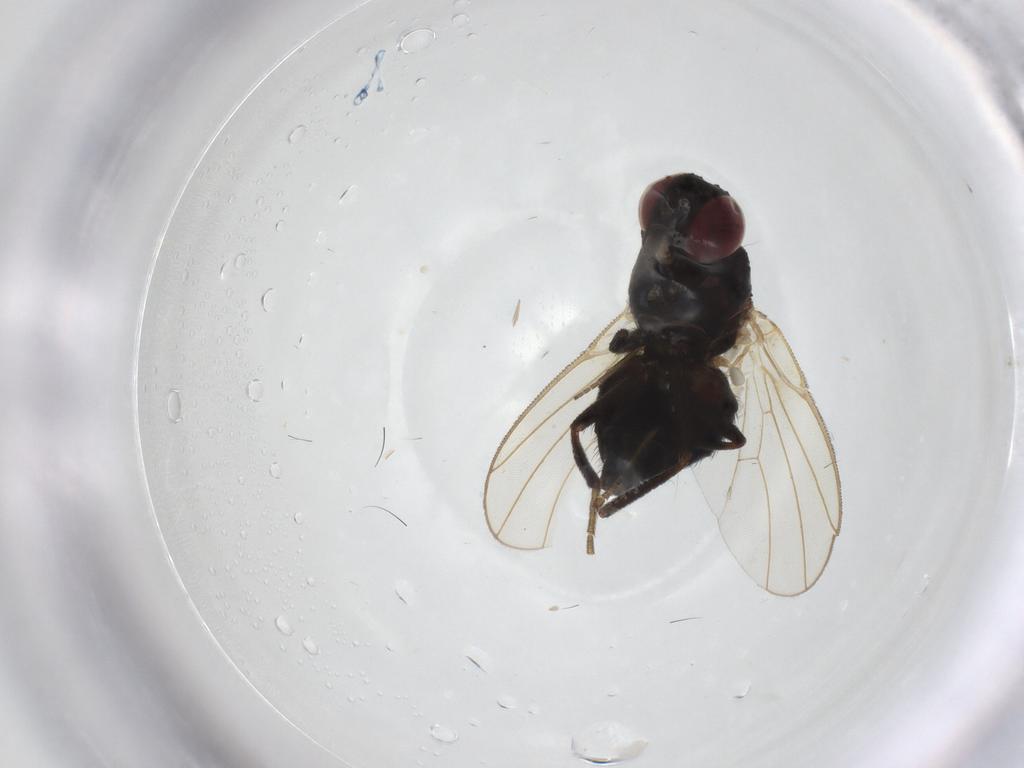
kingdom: Animalia
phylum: Arthropoda
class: Insecta
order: Diptera
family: Agromyzidae
